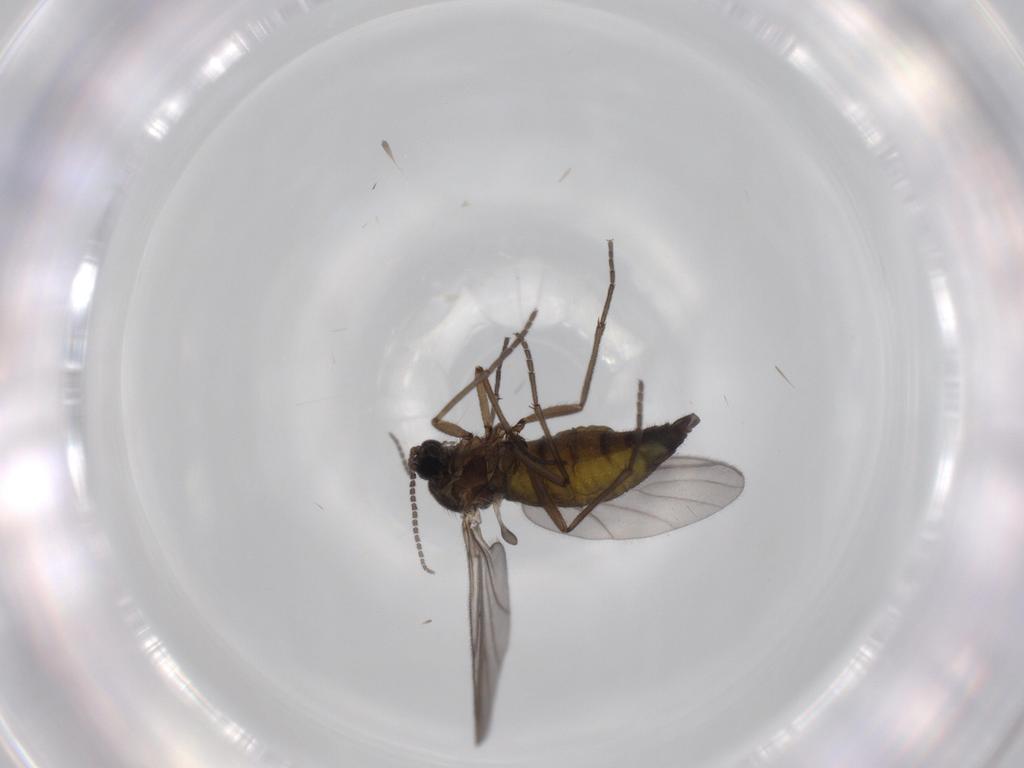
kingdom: Animalia
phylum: Arthropoda
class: Insecta
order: Diptera
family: Sciaridae
